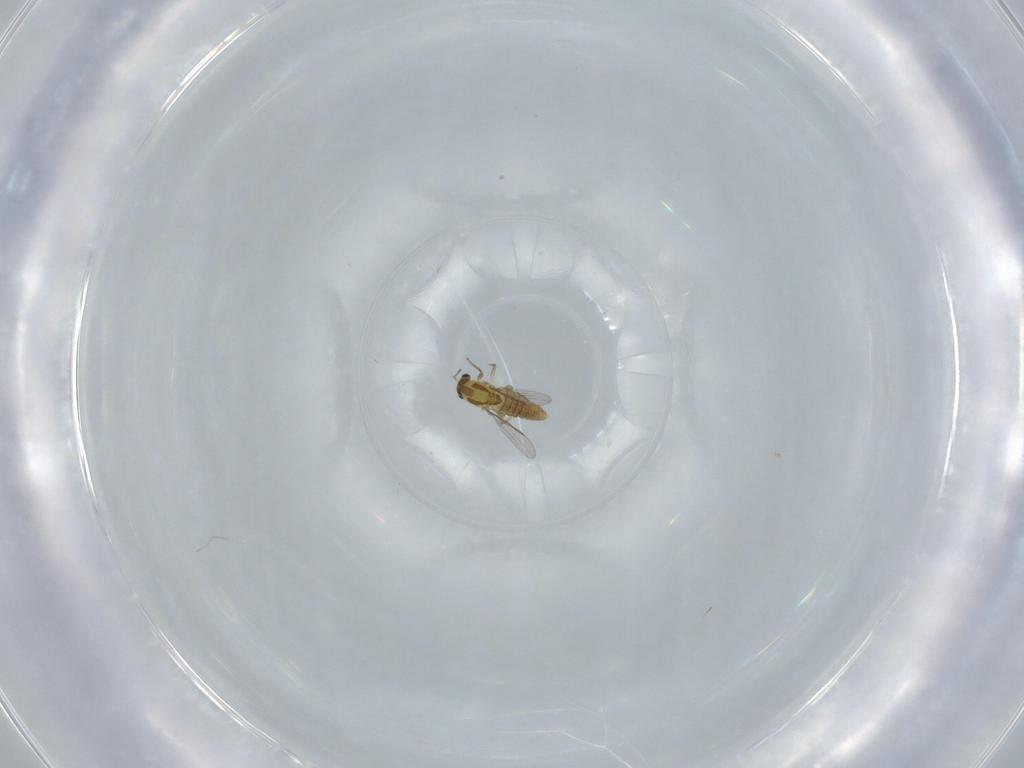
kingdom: Animalia
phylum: Arthropoda
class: Insecta
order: Diptera
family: Chironomidae
